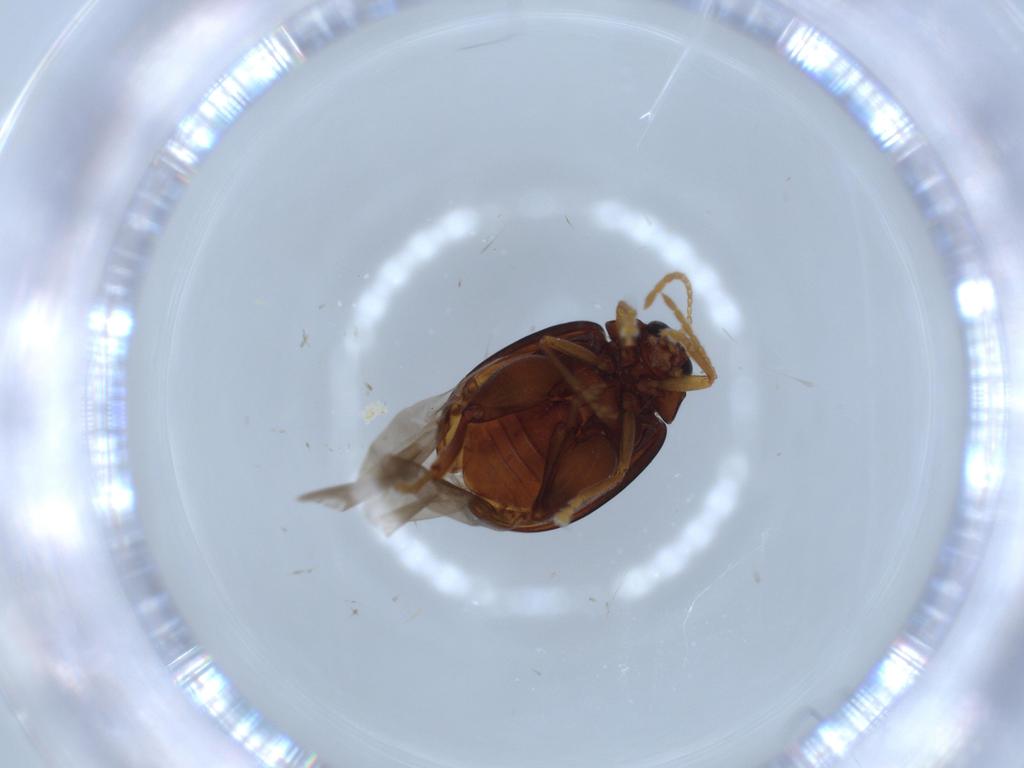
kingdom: Animalia
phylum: Arthropoda
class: Insecta
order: Coleoptera
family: Chrysomelidae
